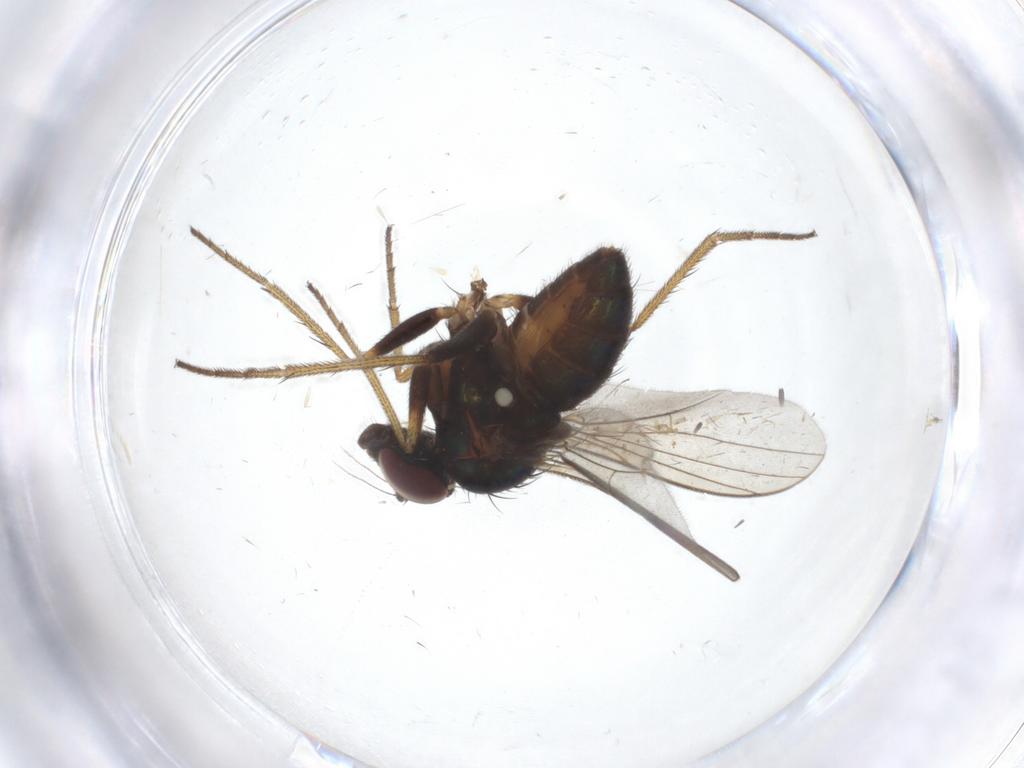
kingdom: Animalia
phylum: Arthropoda
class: Insecta
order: Diptera
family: Dolichopodidae
